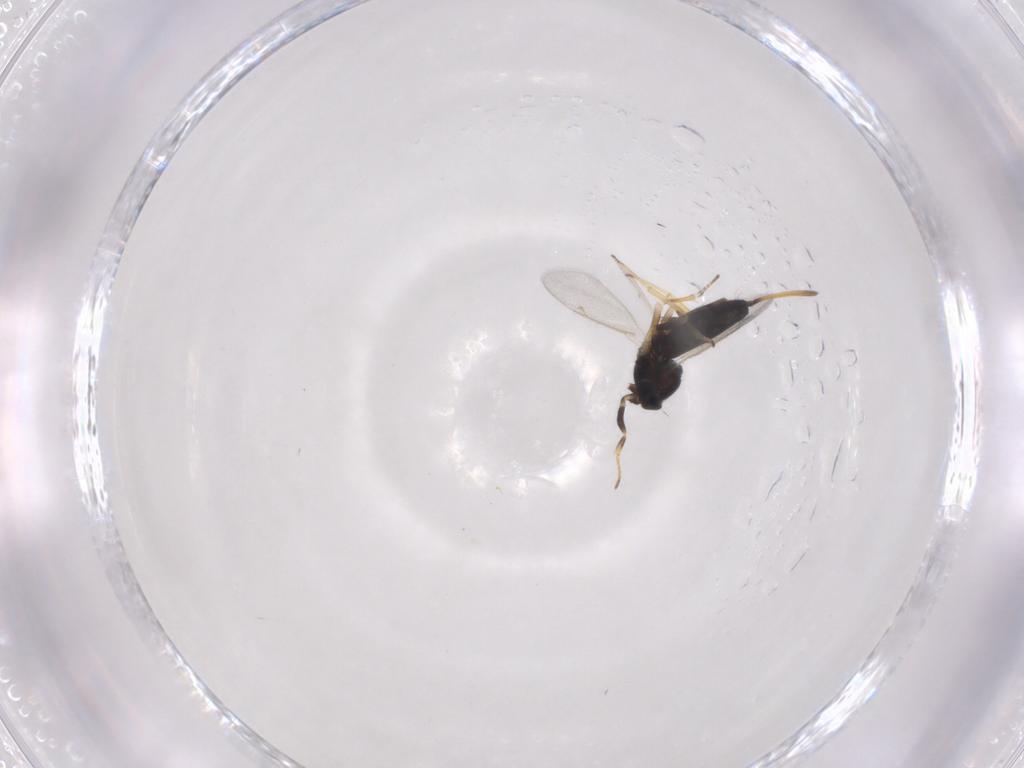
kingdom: Animalia
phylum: Arthropoda
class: Insecta
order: Hymenoptera
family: Eupelmidae
